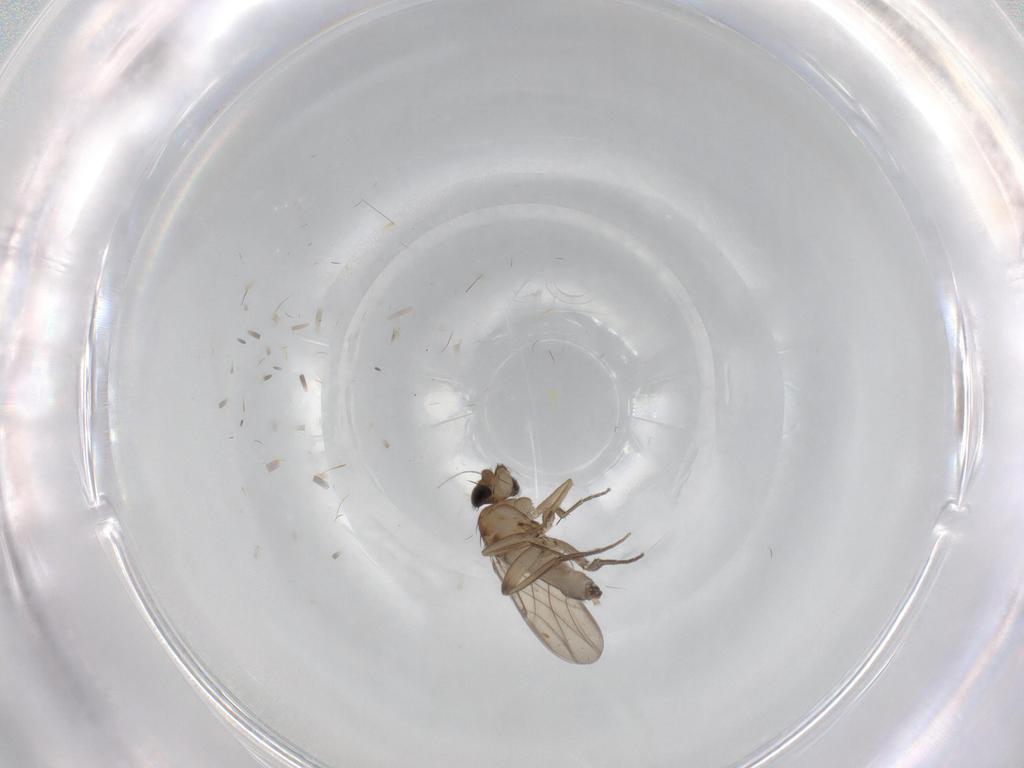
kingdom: Animalia
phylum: Arthropoda
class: Insecta
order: Diptera
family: Phoridae
